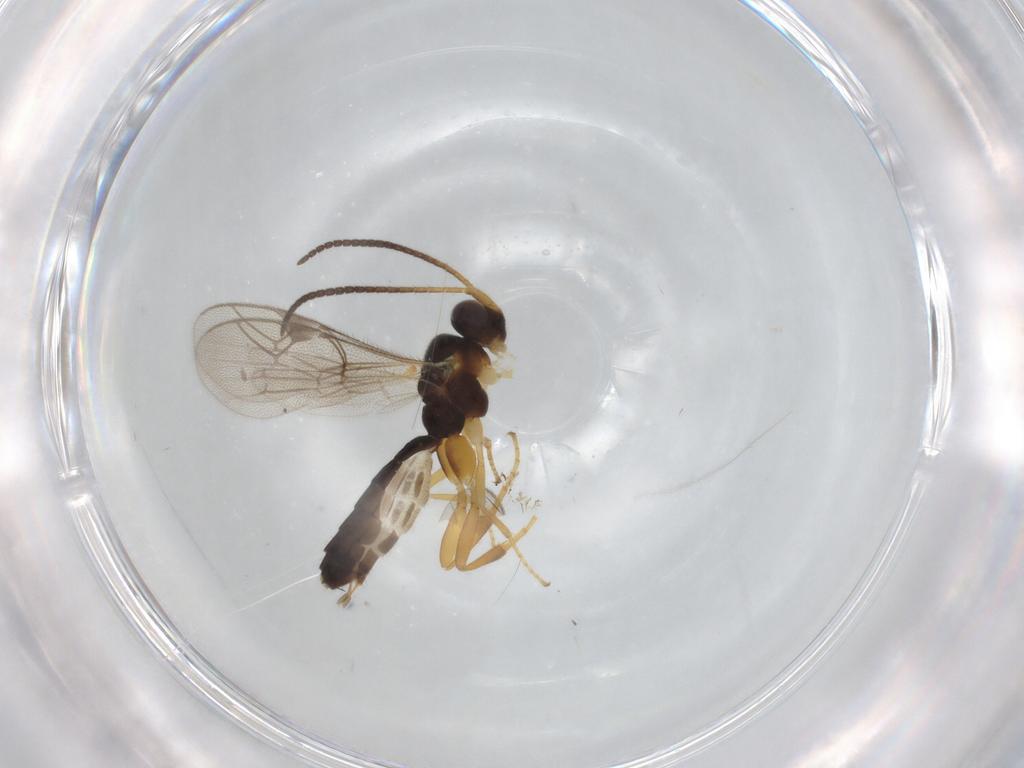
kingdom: Animalia
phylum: Arthropoda
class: Insecta
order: Hymenoptera
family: Ichneumonidae
